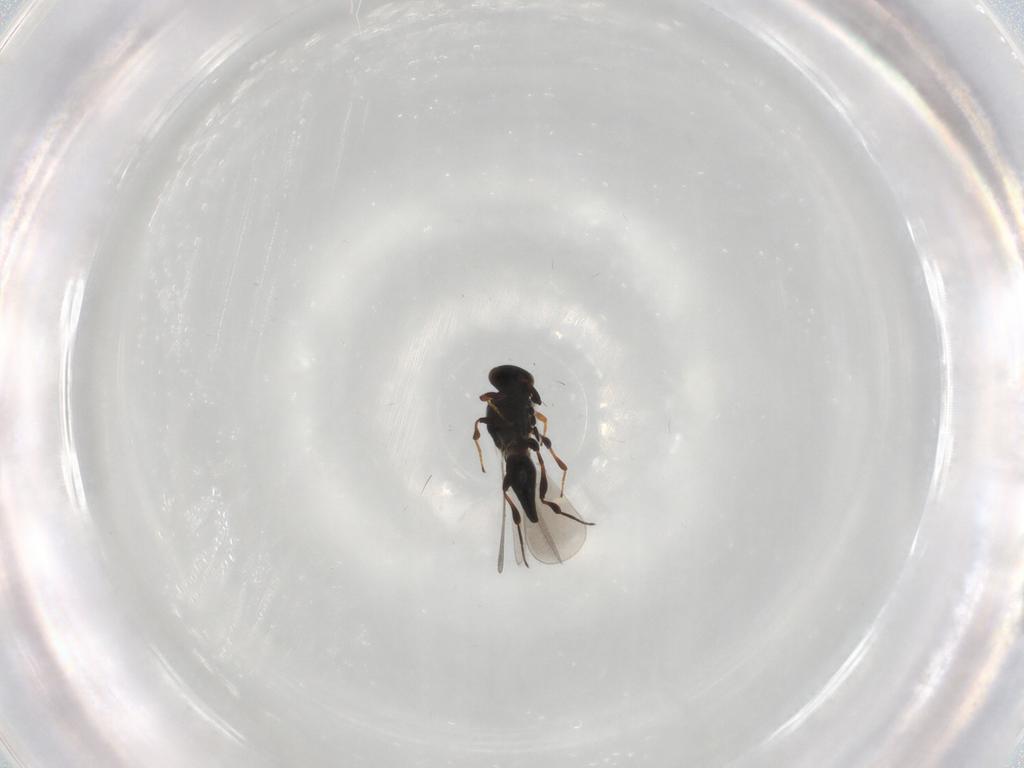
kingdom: Animalia
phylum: Arthropoda
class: Insecta
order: Hymenoptera
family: Platygastridae
